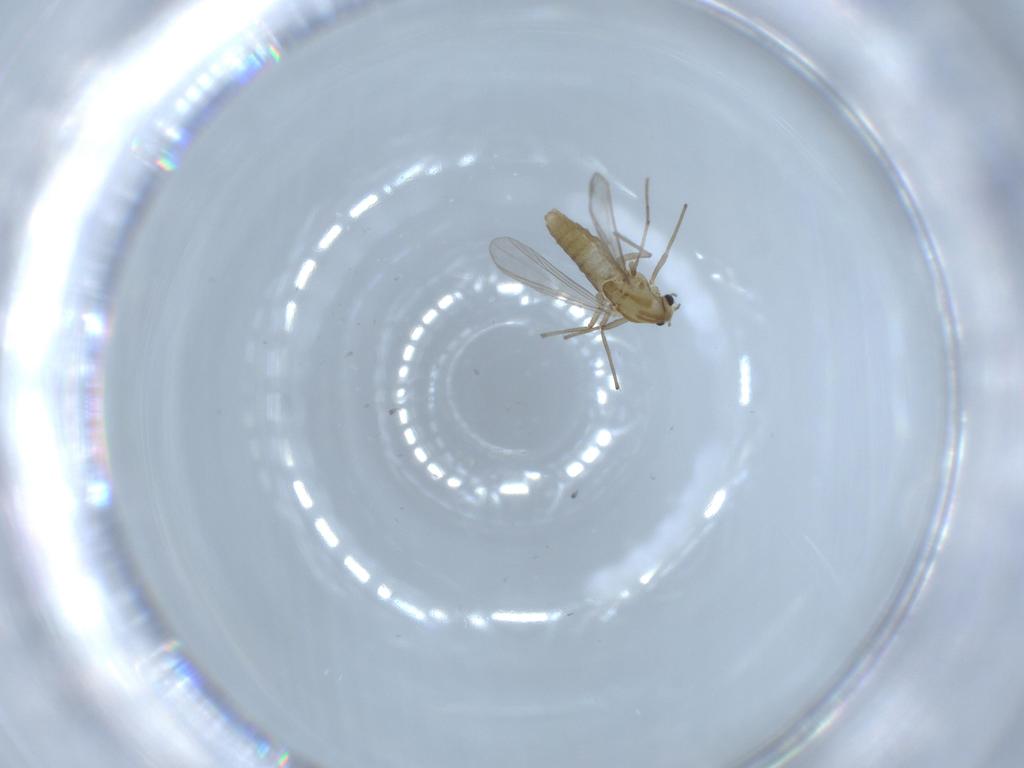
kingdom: Animalia
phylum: Arthropoda
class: Insecta
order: Diptera
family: Chironomidae
